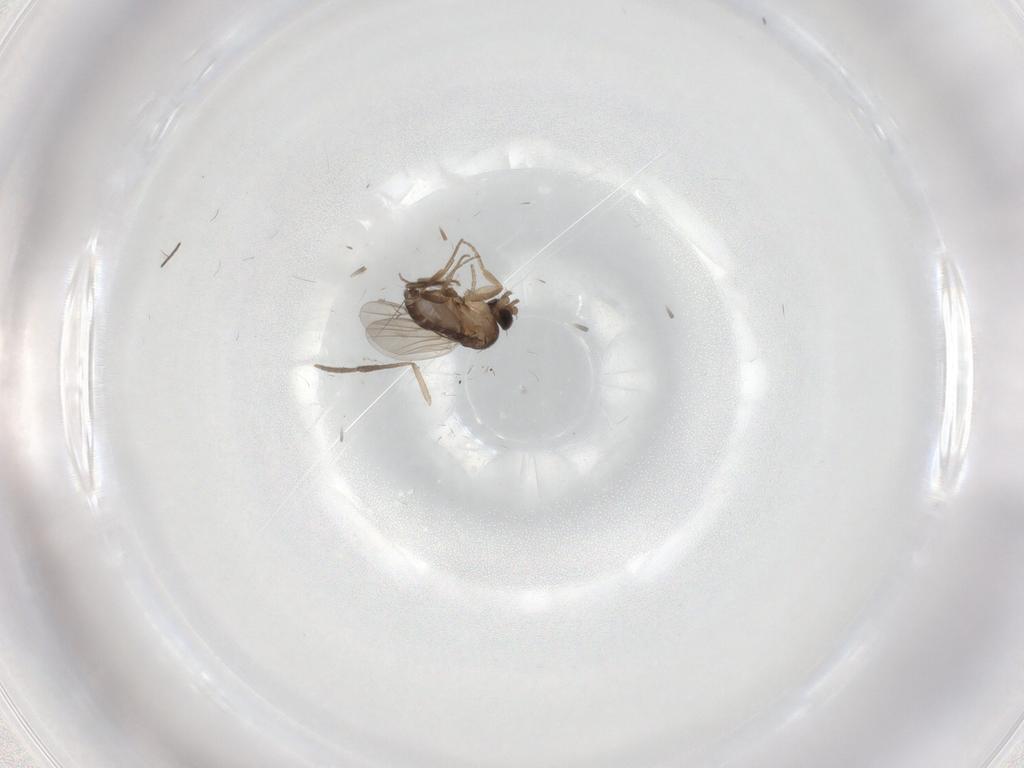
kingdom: Animalia
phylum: Arthropoda
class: Insecta
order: Diptera
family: Phoridae
